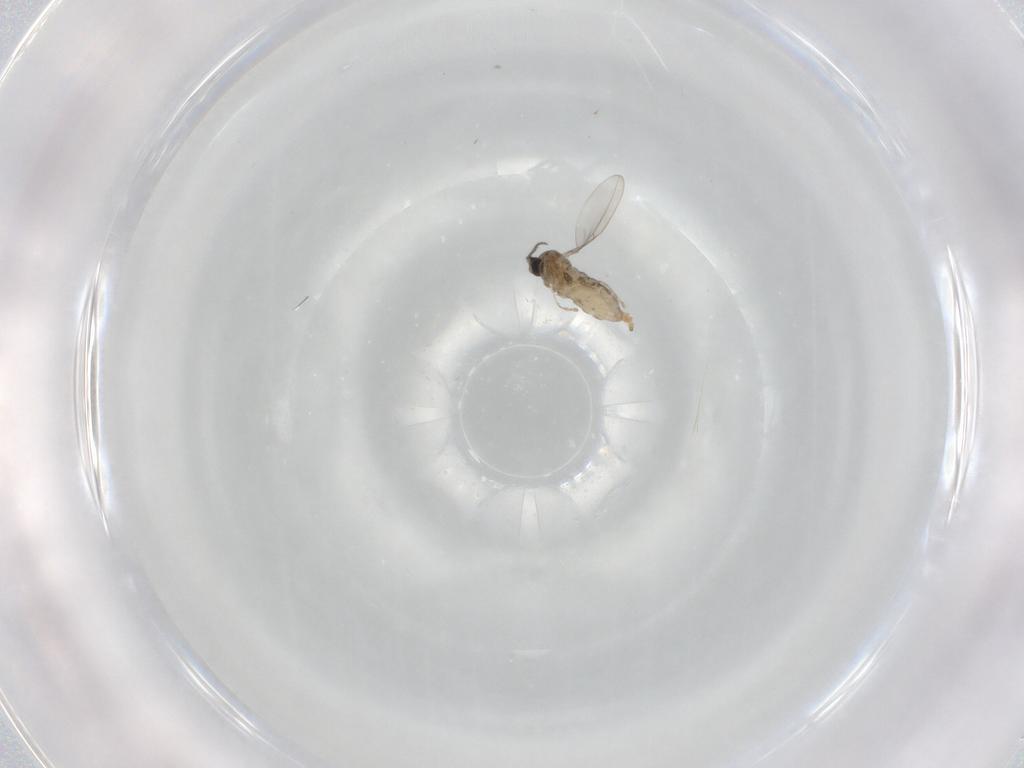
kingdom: Animalia
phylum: Arthropoda
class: Insecta
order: Diptera
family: Cecidomyiidae
